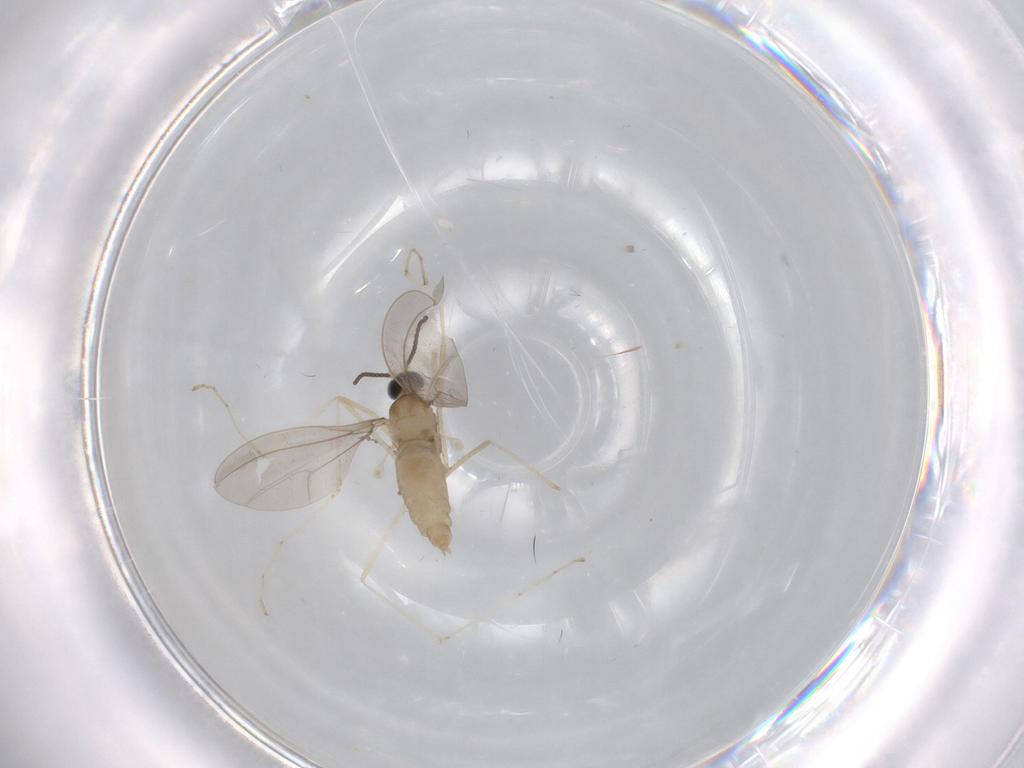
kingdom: Animalia
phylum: Arthropoda
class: Insecta
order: Diptera
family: Cecidomyiidae
